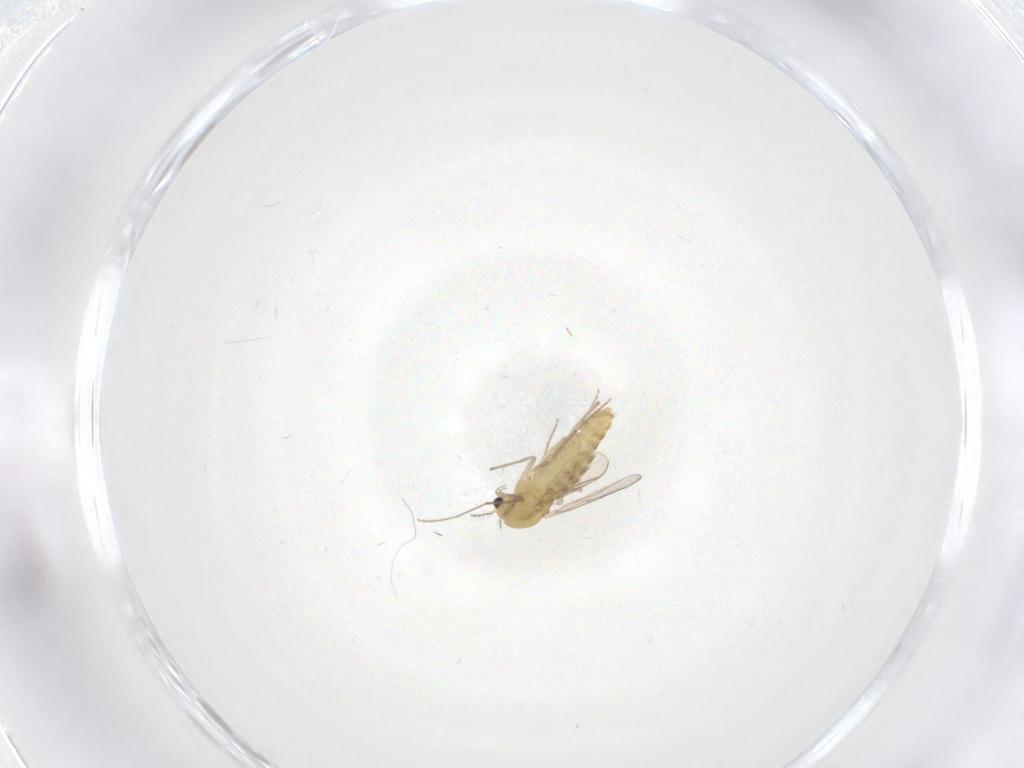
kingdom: Animalia
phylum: Arthropoda
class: Insecta
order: Diptera
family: Chironomidae
